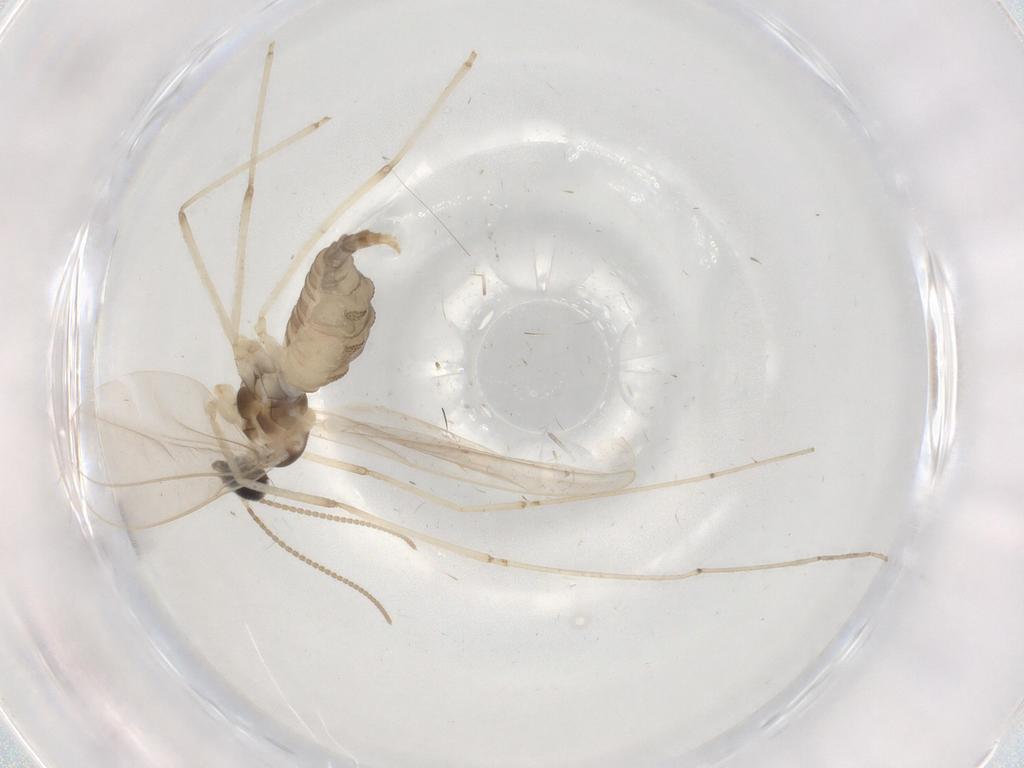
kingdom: Animalia
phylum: Arthropoda
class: Insecta
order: Diptera
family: Cecidomyiidae
